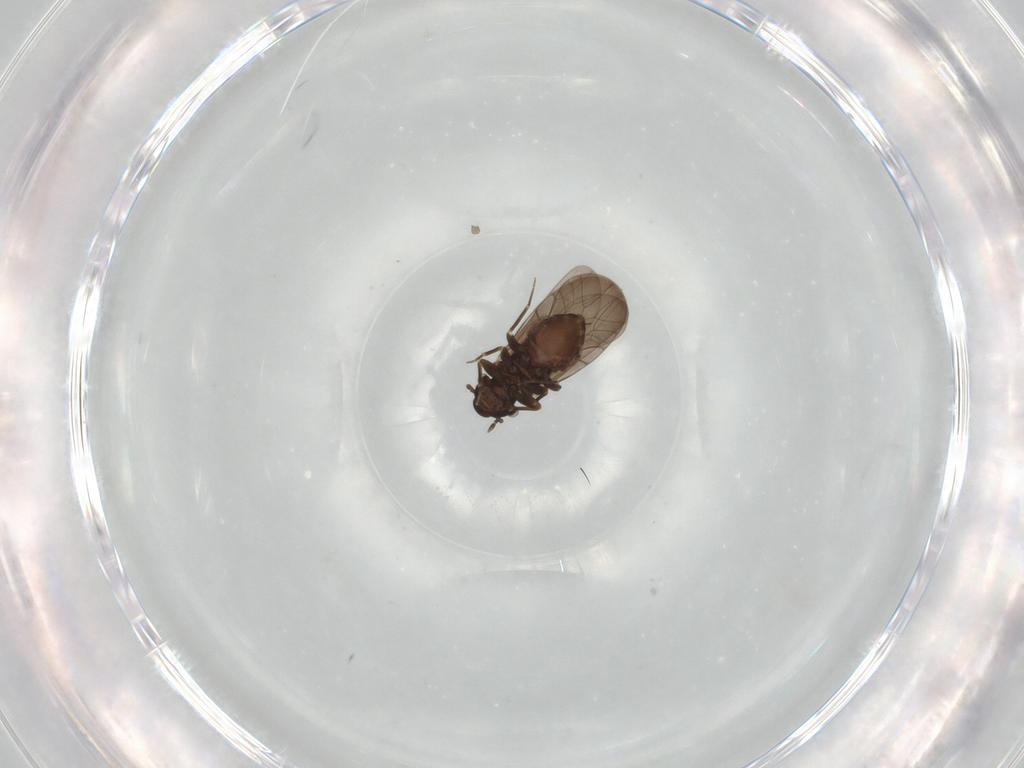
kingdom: Animalia
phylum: Arthropoda
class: Insecta
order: Psocodea
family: Lepidopsocidae
